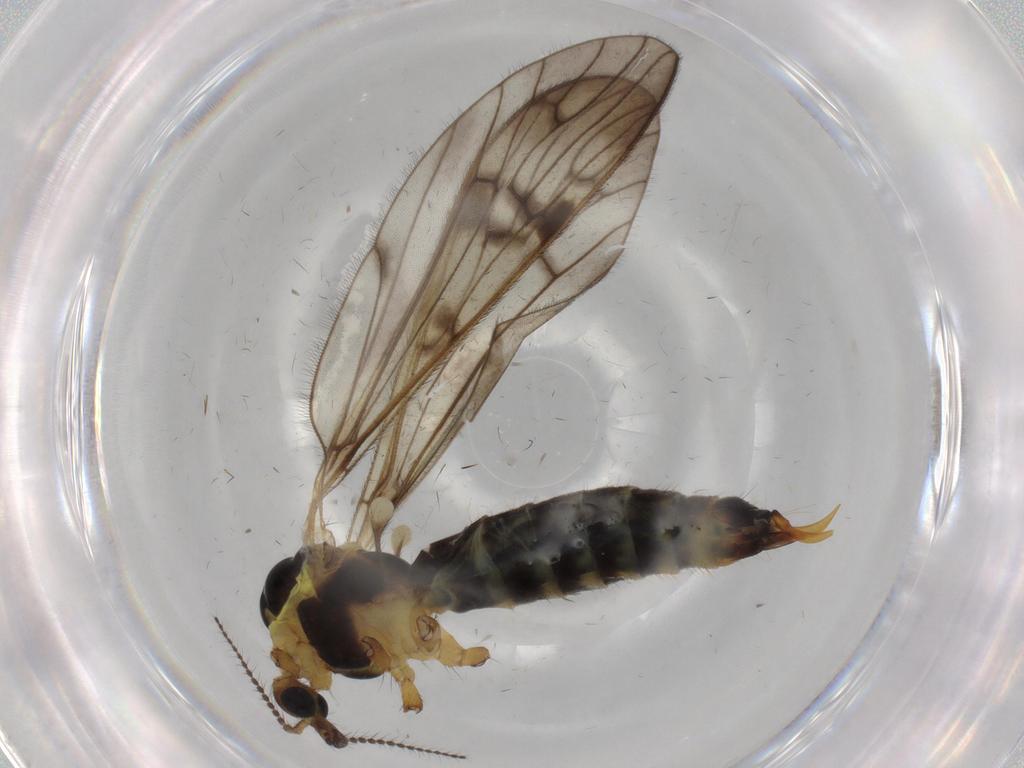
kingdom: Animalia
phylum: Arthropoda
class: Insecta
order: Diptera
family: Limoniidae
